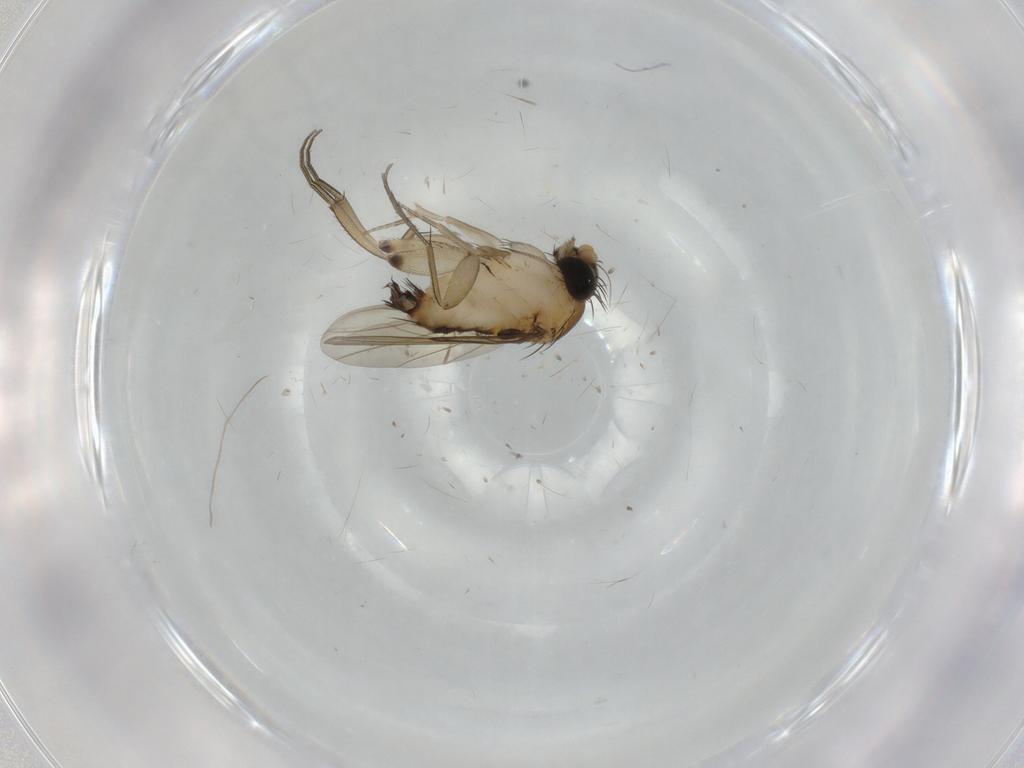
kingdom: Animalia
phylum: Arthropoda
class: Insecta
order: Diptera
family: Phoridae
